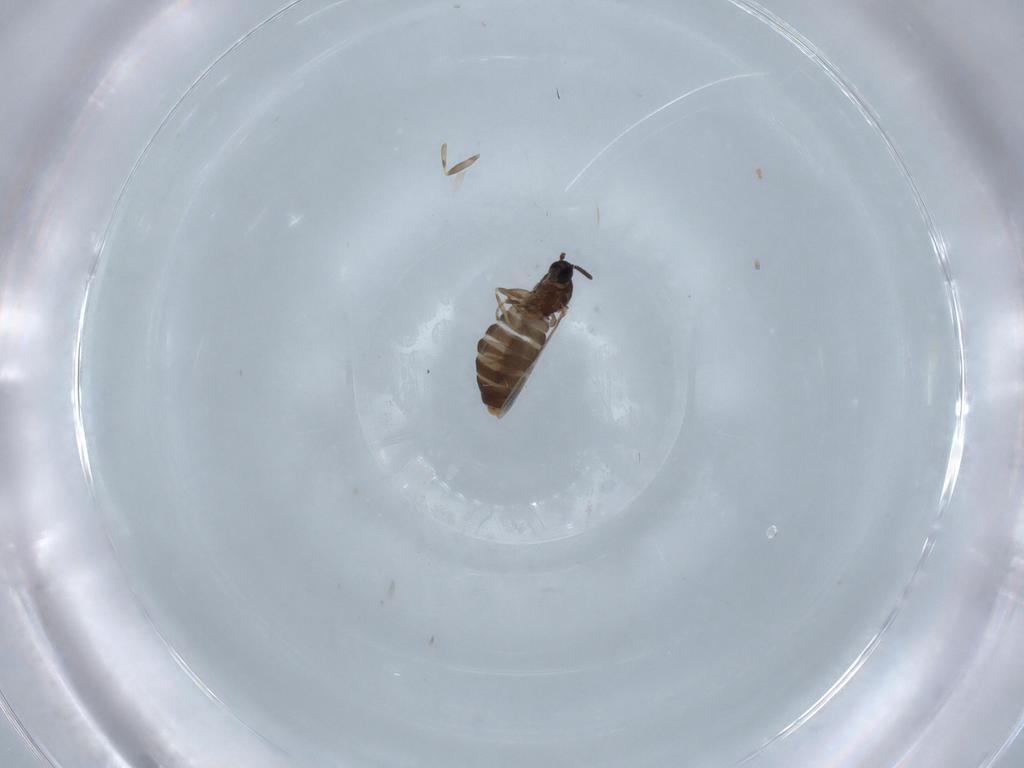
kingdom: Animalia
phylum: Arthropoda
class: Insecta
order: Diptera
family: Scatopsidae
